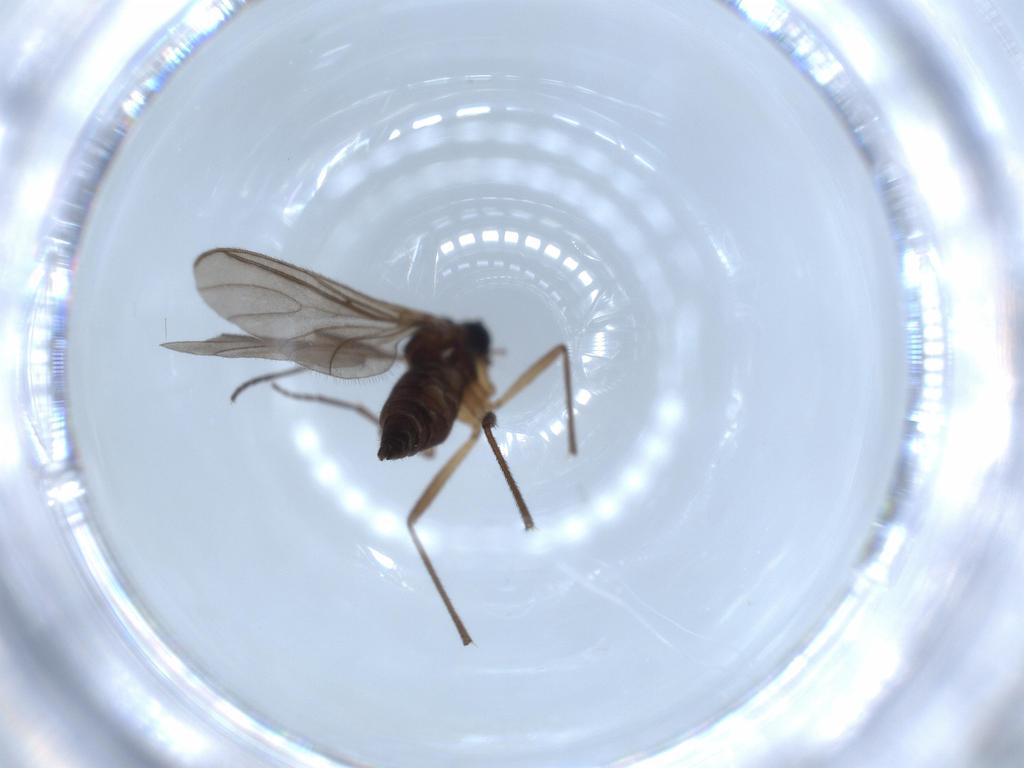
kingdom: Animalia
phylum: Arthropoda
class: Insecta
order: Diptera
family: Sciaridae
